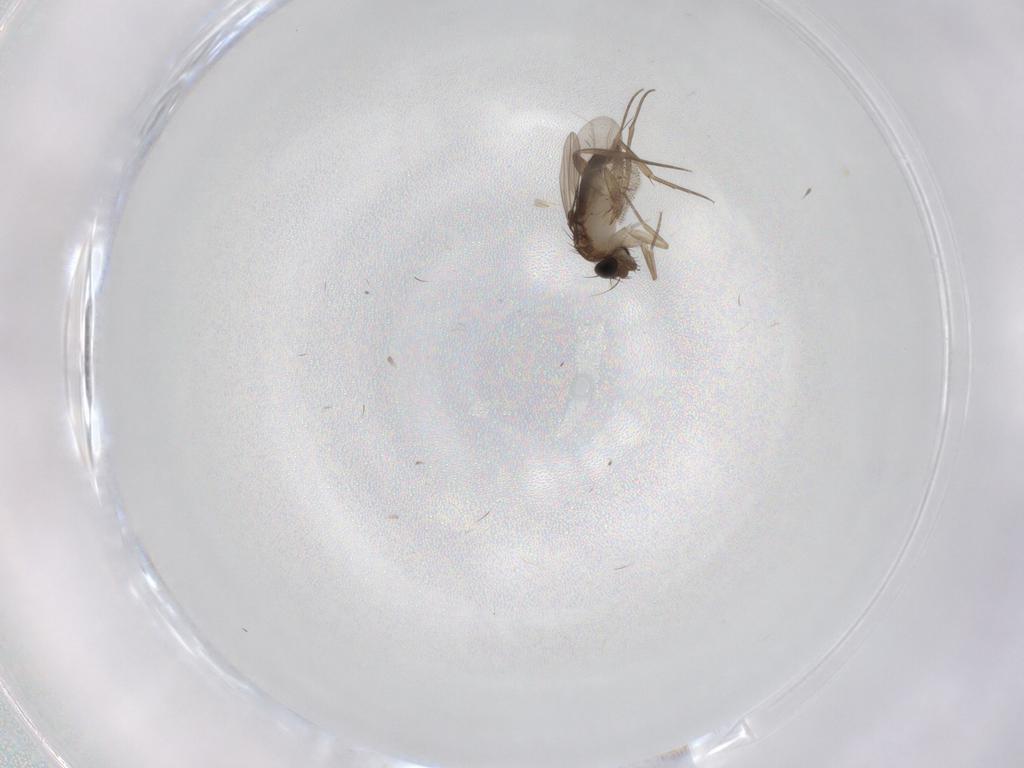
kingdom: Animalia
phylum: Arthropoda
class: Insecta
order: Diptera
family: Phoridae
